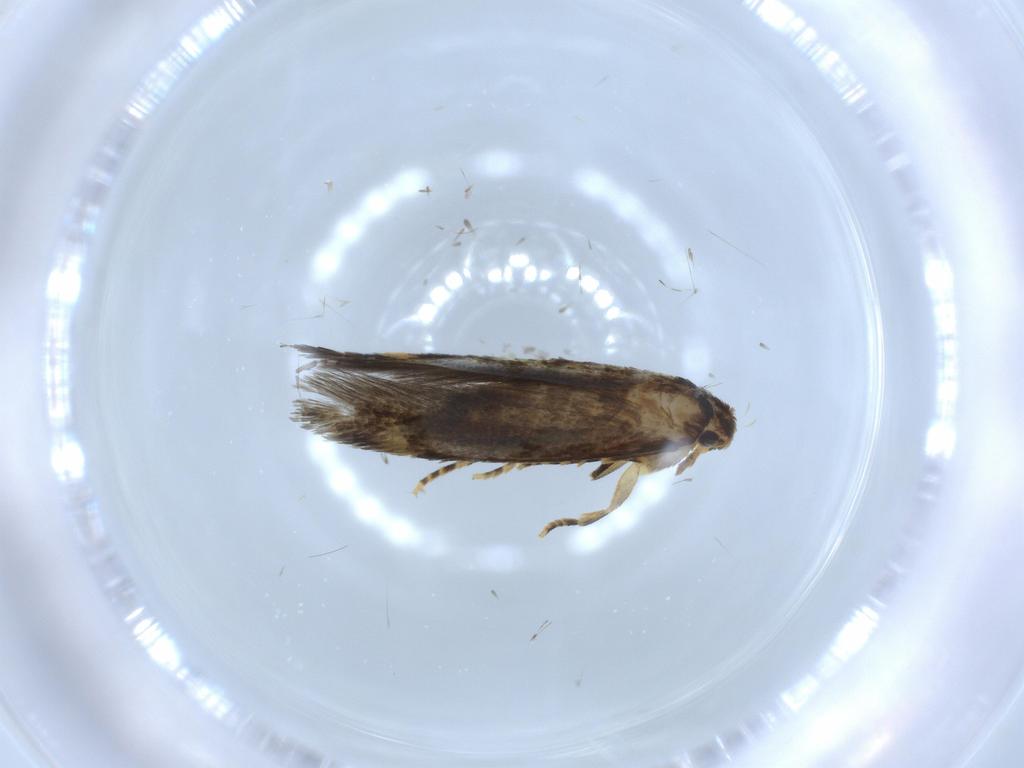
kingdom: Animalia
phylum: Arthropoda
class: Insecta
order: Lepidoptera
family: Tineidae
